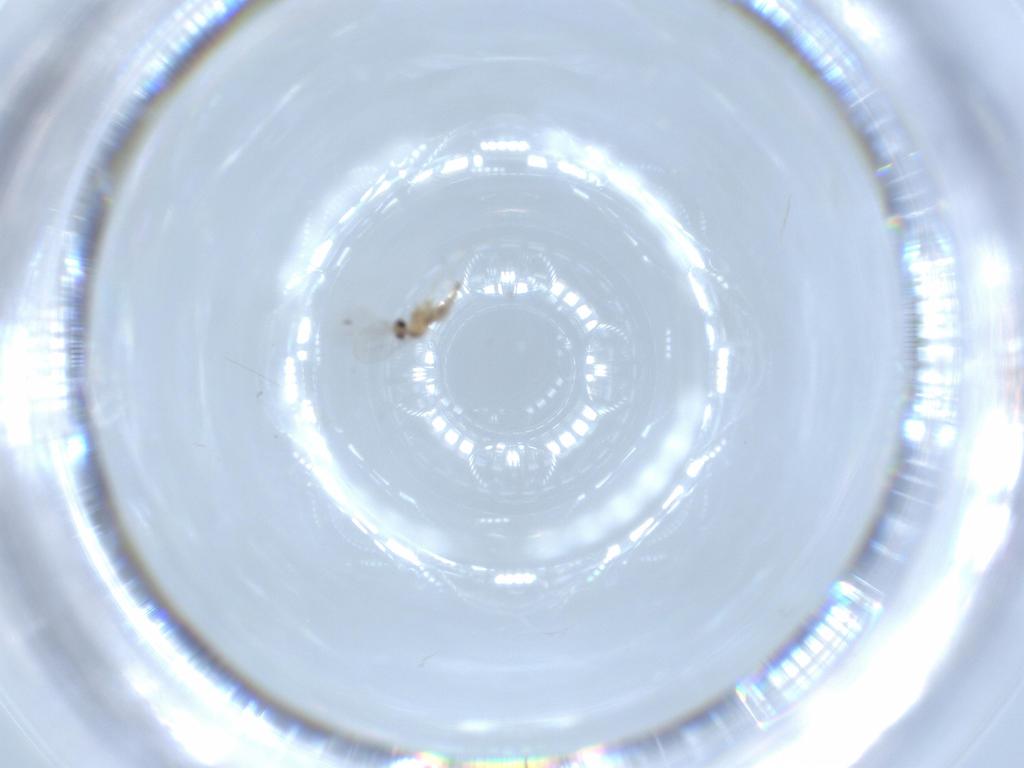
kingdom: Animalia
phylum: Arthropoda
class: Insecta
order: Diptera
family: Cecidomyiidae
